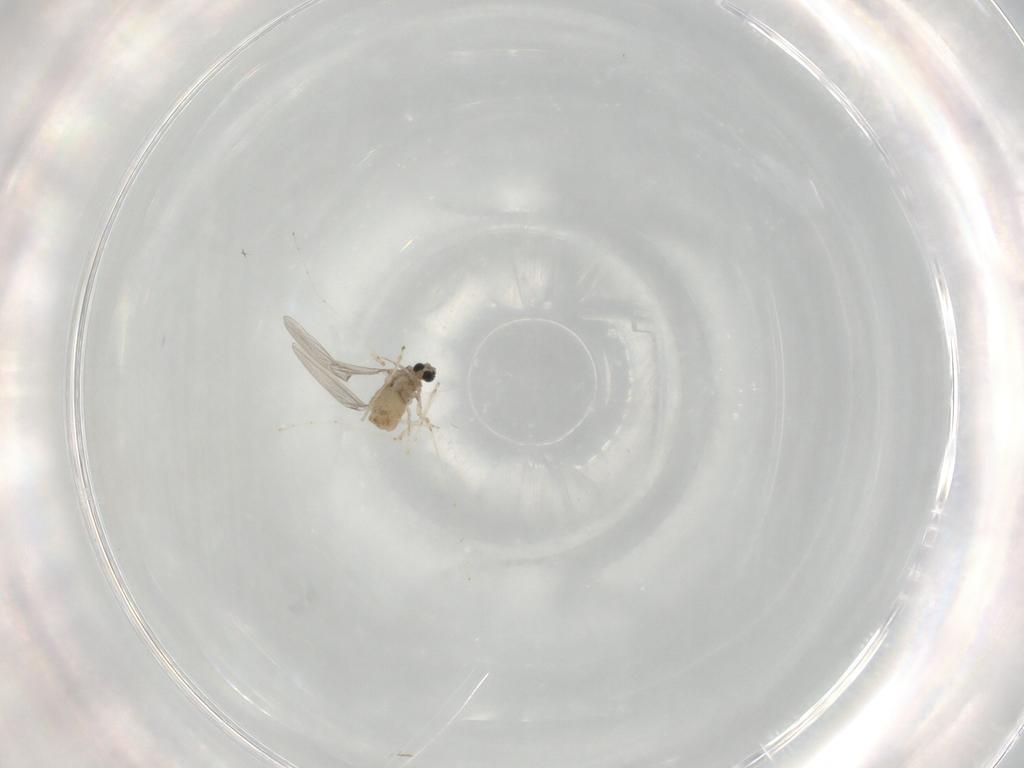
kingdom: Animalia
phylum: Arthropoda
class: Insecta
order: Diptera
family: Cecidomyiidae
